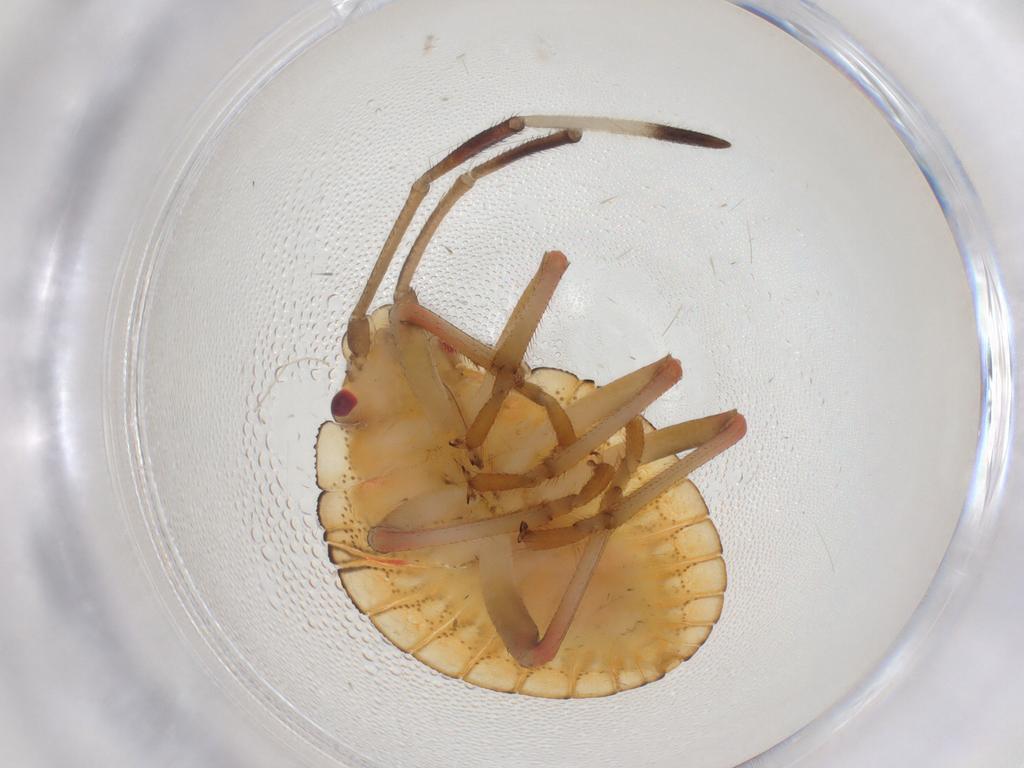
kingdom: Animalia
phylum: Arthropoda
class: Insecta
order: Hemiptera
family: Pentatomidae
